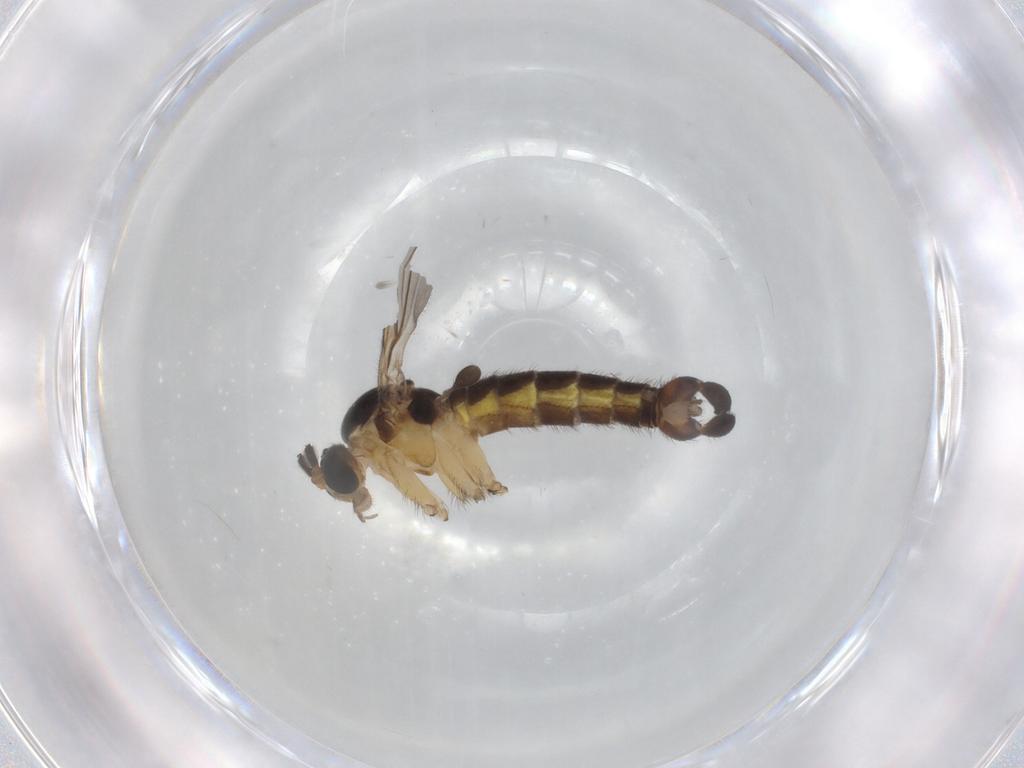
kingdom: Animalia
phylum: Arthropoda
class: Insecta
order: Diptera
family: Sciaridae
